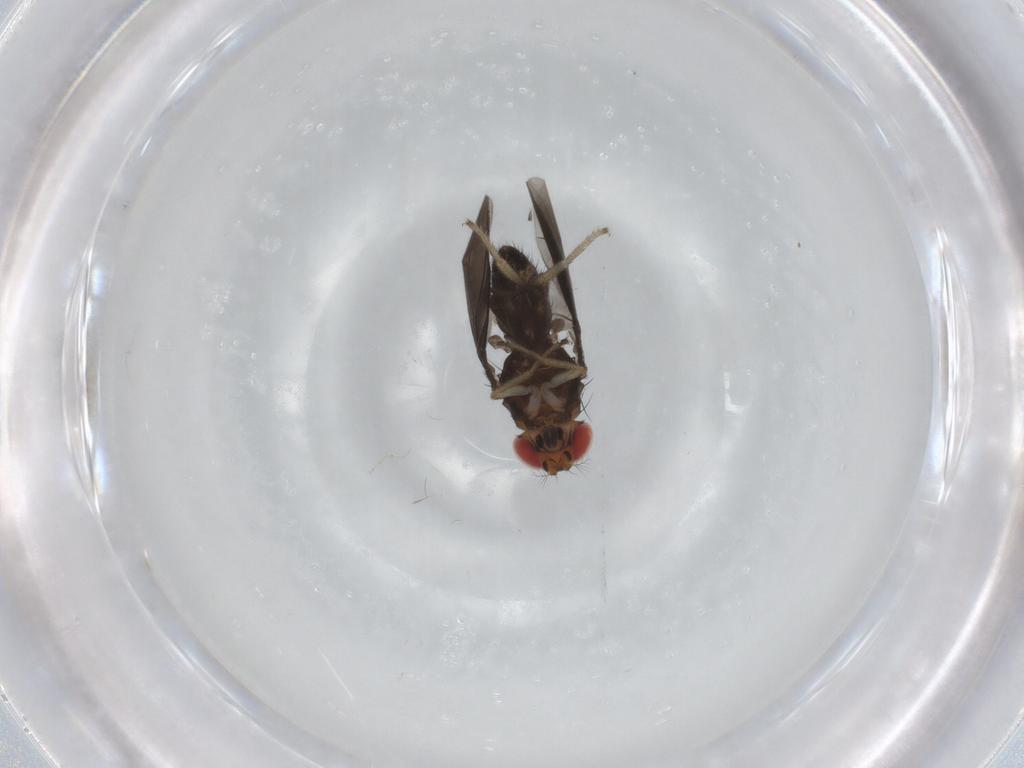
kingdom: Animalia
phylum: Arthropoda
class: Insecta
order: Diptera
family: Drosophilidae
